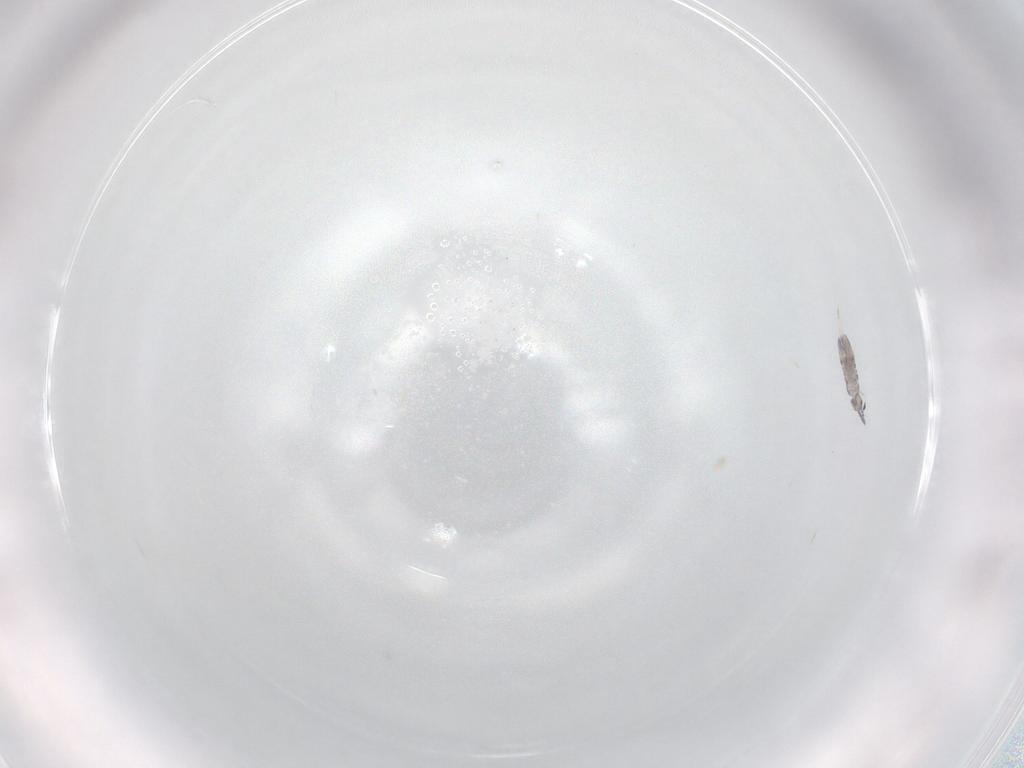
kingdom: Animalia
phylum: Arthropoda
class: Collembola
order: Entomobryomorpha
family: Entomobryidae
